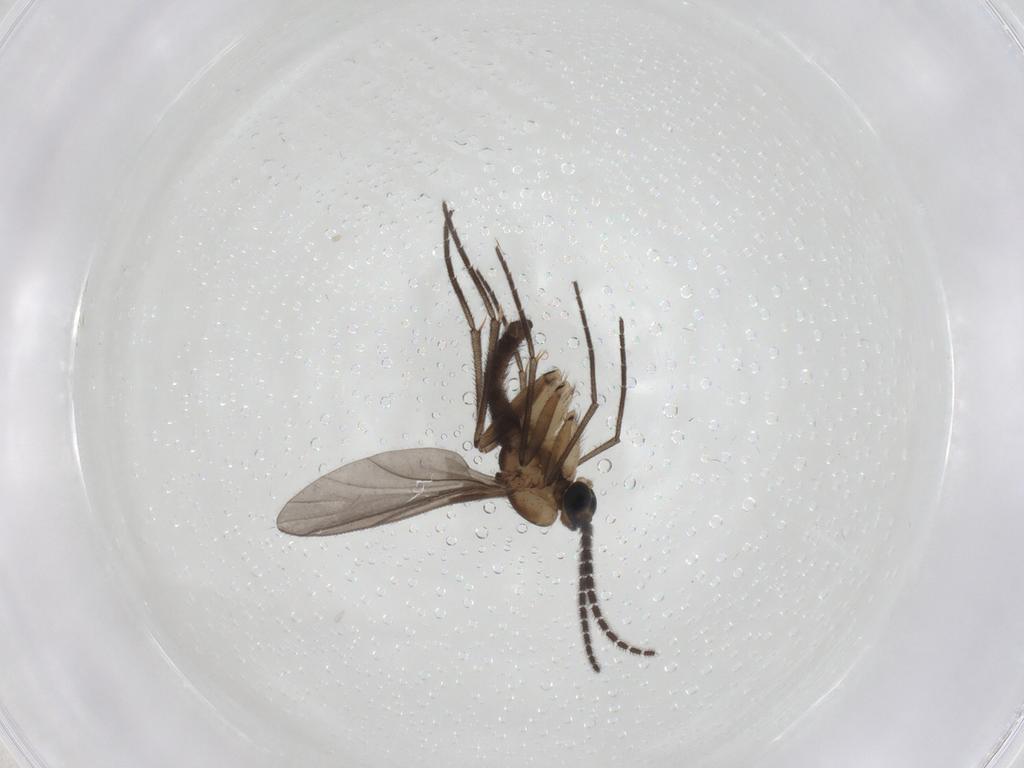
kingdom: Animalia
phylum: Arthropoda
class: Insecta
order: Diptera
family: Sciaridae
